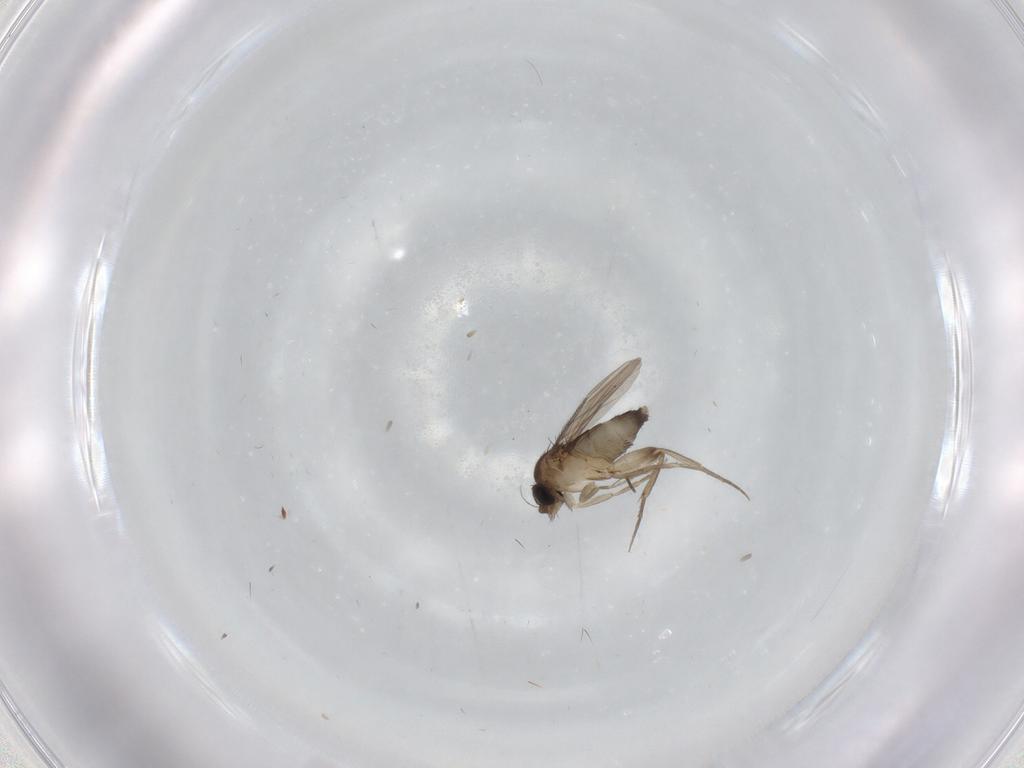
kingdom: Animalia
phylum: Arthropoda
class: Insecta
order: Diptera
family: Phoridae
